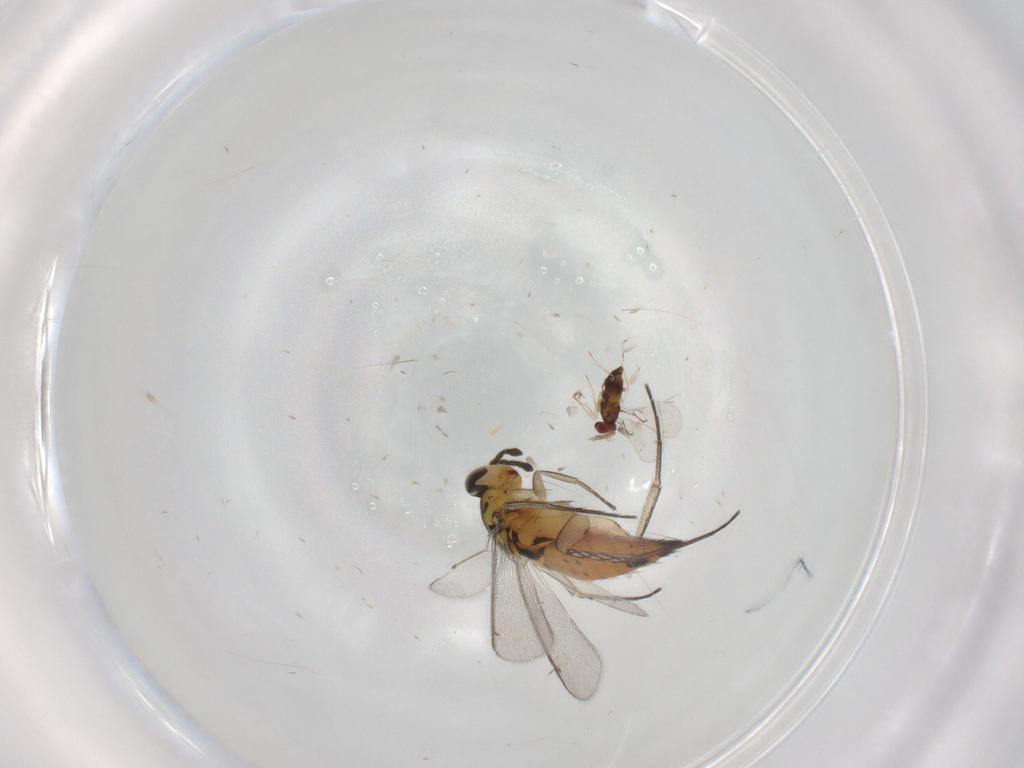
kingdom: Animalia
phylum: Arthropoda
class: Insecta
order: Hymenoptera
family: Eulophidae
